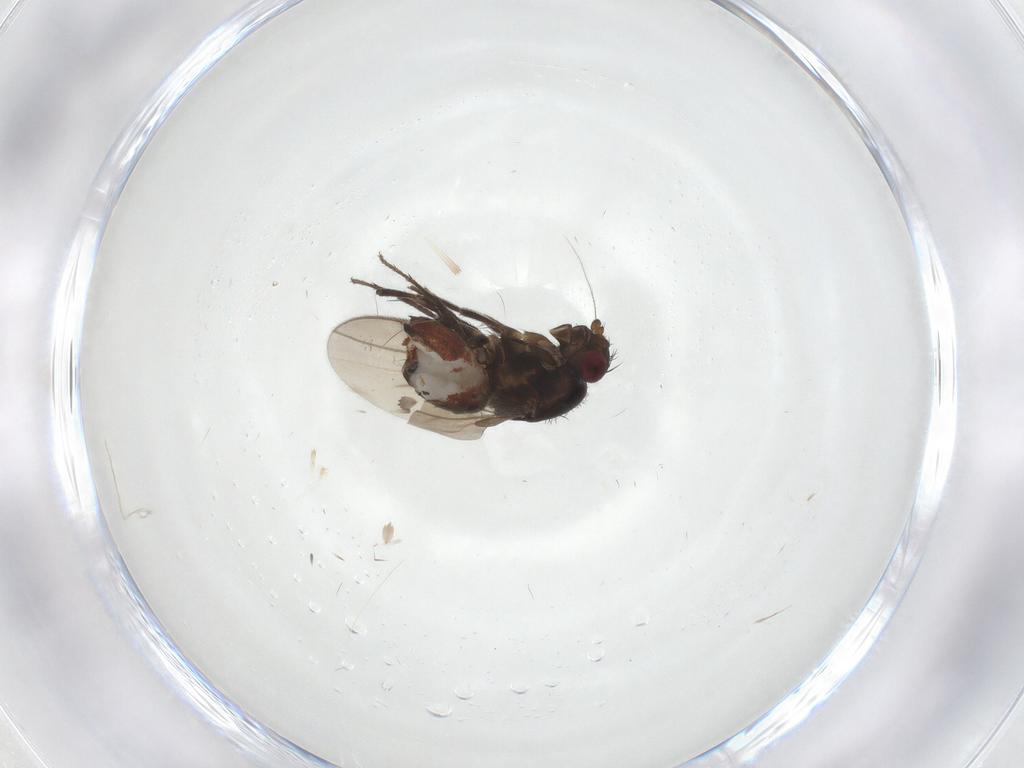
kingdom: Animalia
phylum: Arthropoda
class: Insecta
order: Diptera
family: Sphaeroceridae
